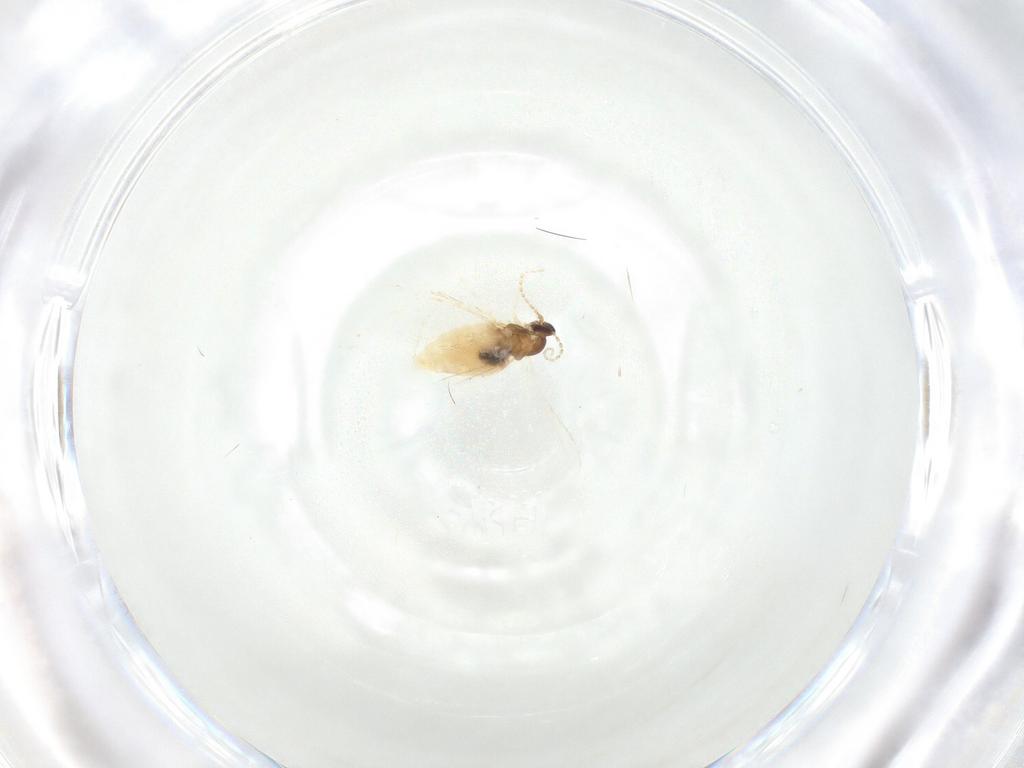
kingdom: Animalia
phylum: Arthropoda
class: Insecta
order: Diptera
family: Cecidomyiidae
